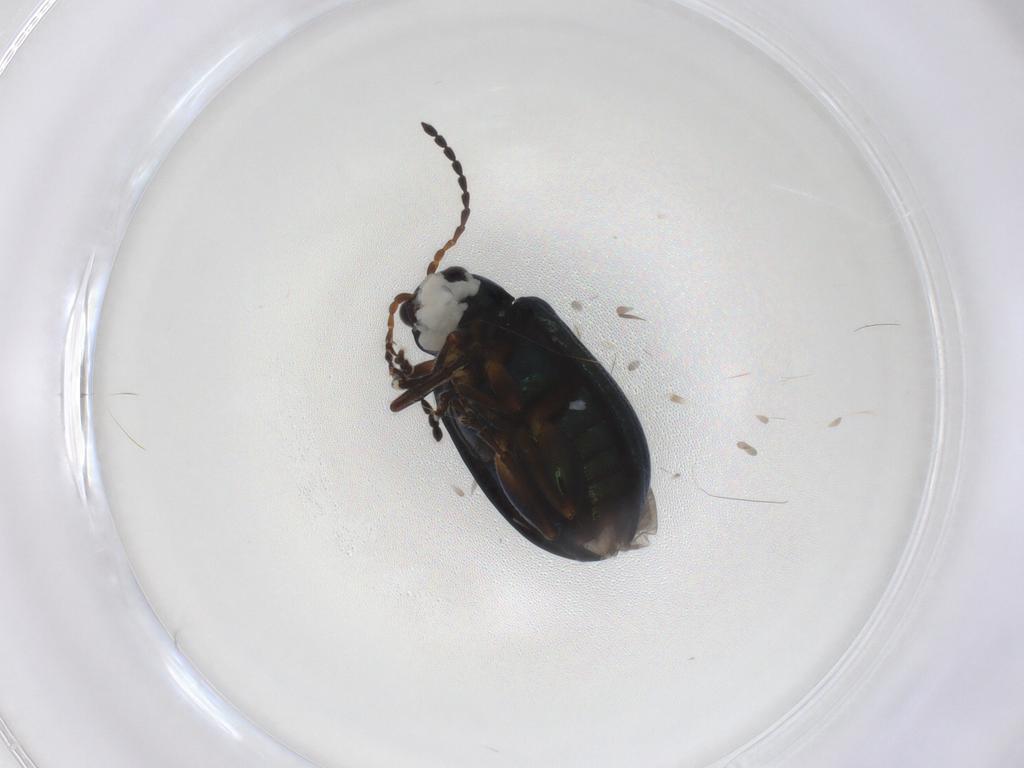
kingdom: Animalia
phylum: Arthropoda
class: Insecta
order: Coleoptera
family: Chrysomelidae
